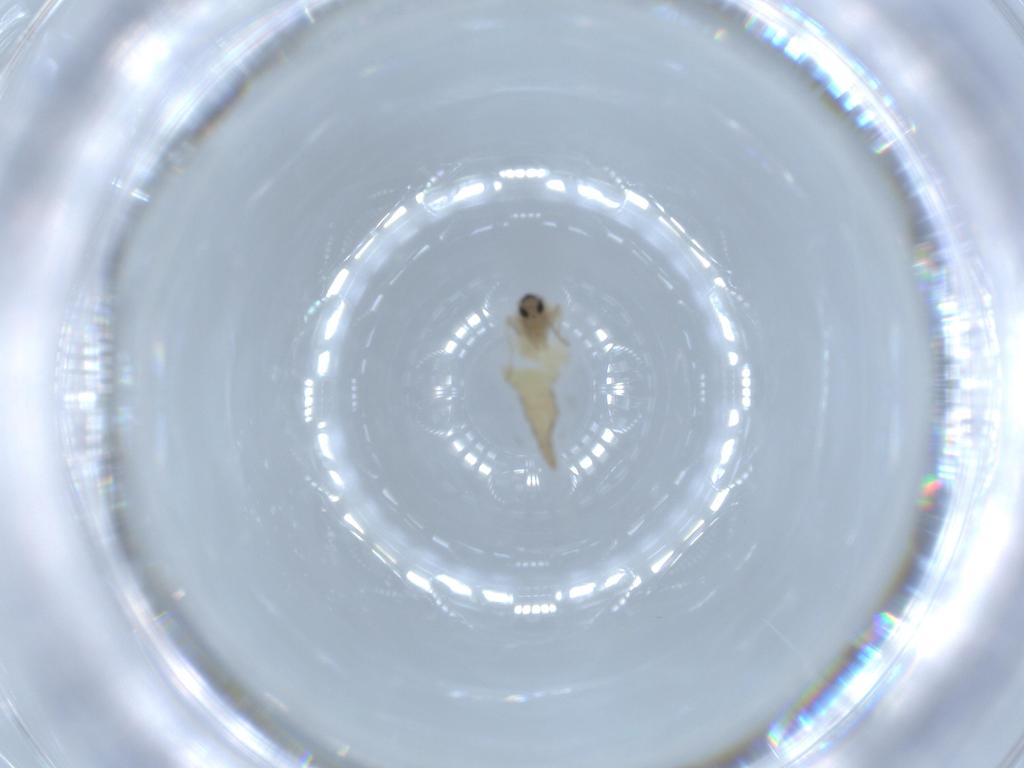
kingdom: Animalia
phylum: Arthropoda
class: Insecta
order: Diptera
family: Cecidomyiidae
